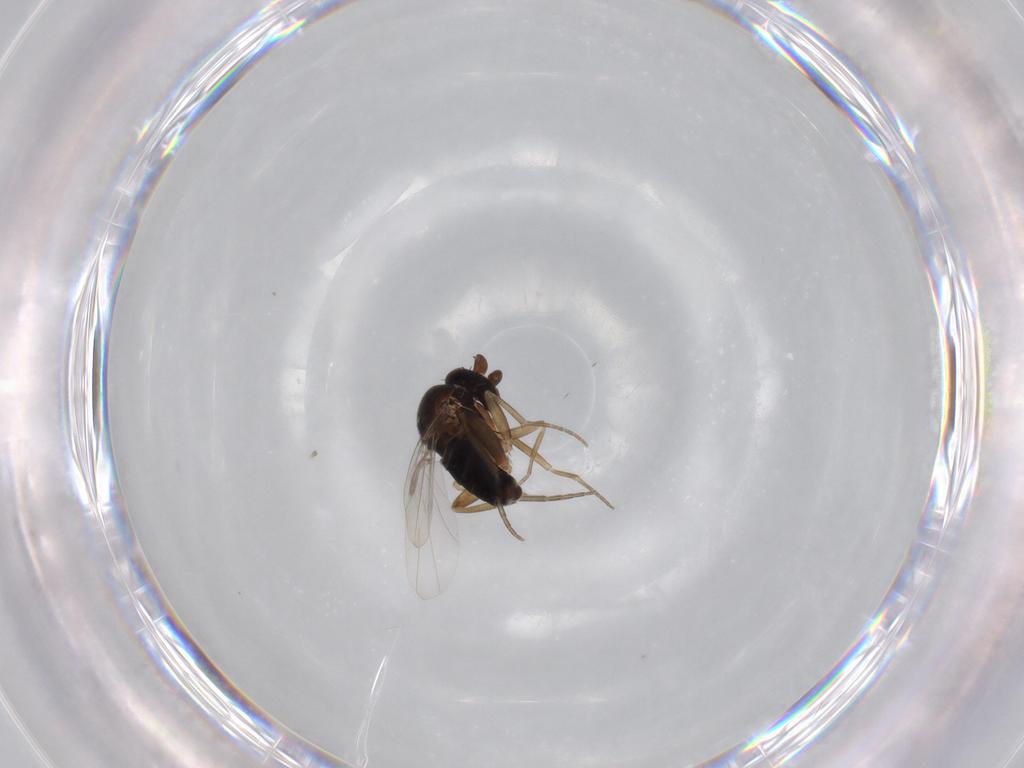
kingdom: Animalia
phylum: Arthropoda
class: Insecta
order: Diptera
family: Phoridae
